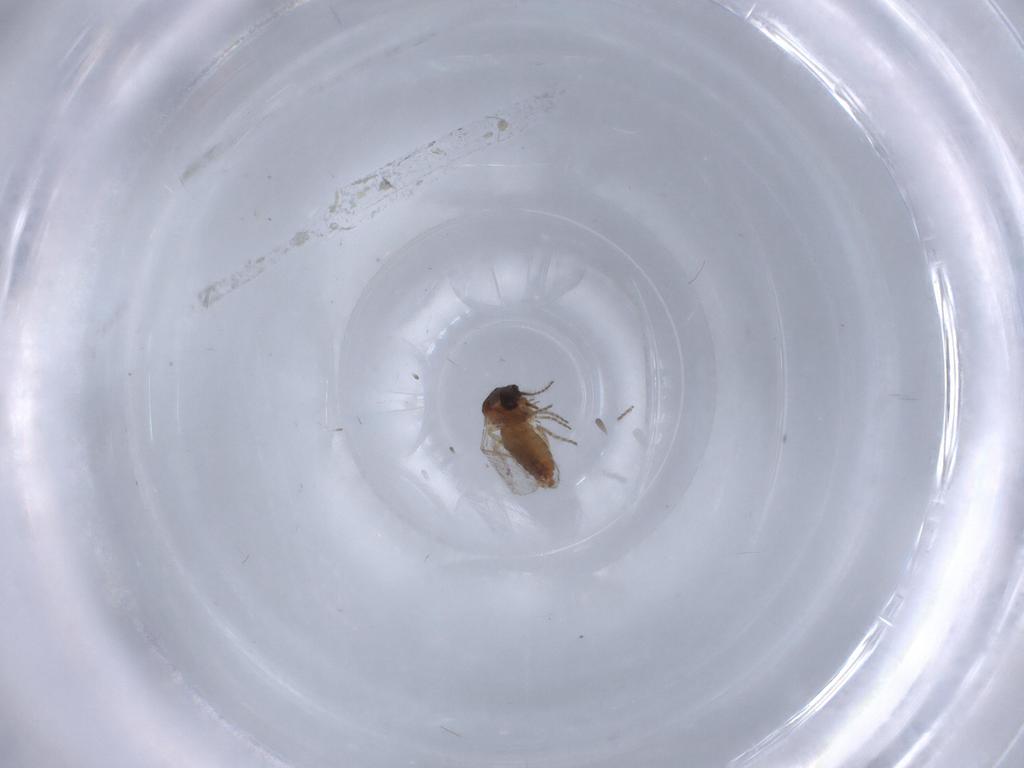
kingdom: Animalia
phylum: Arthropoda
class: Insecta
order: Diptera
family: Ceratopogonidae
